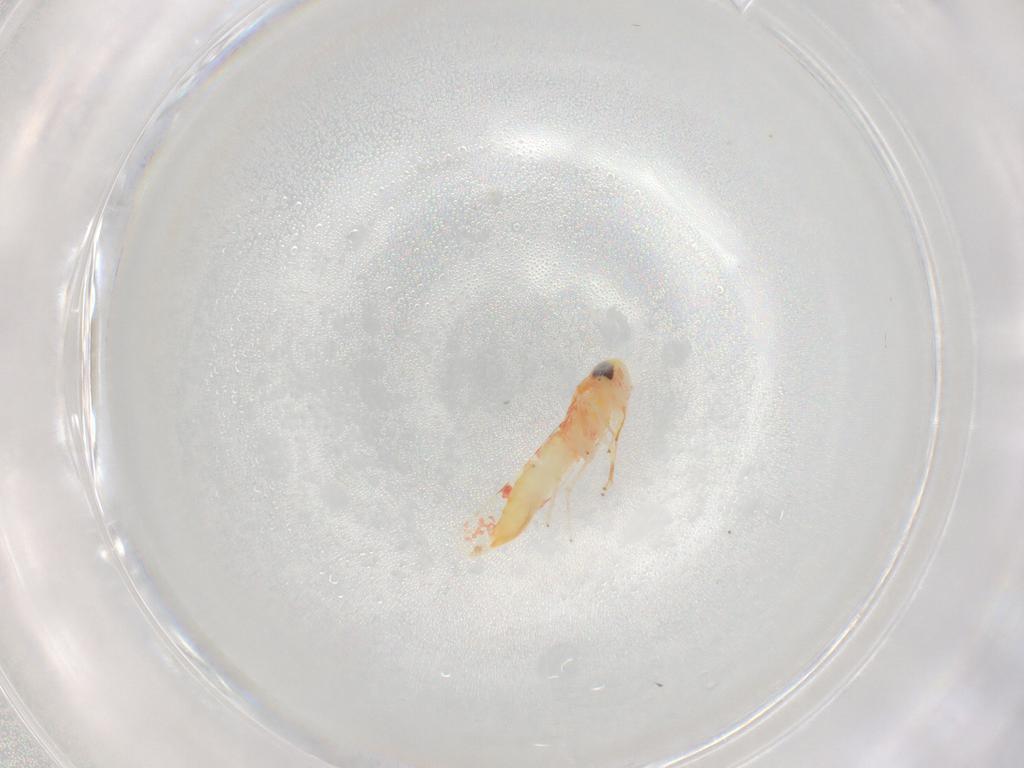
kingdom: Animalia
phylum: Arthropoda
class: Insecta
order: Hemiptera
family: Cicadellidae
